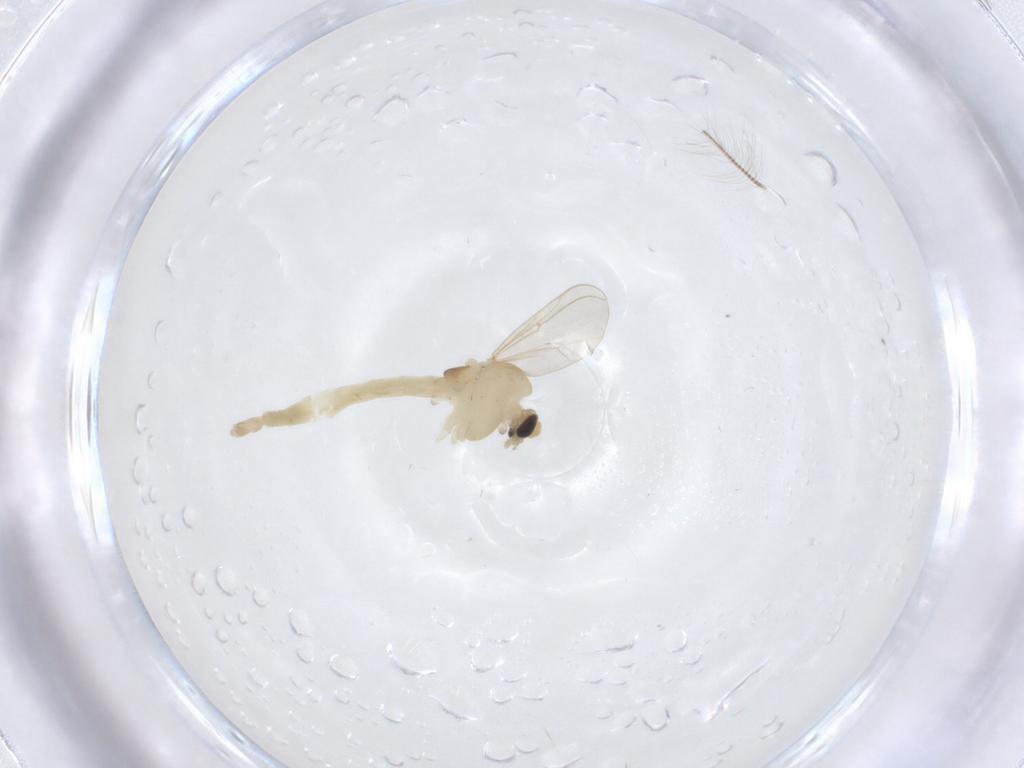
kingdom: Animalia
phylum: Arthropoda
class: Insecta
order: Diptera
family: Chironomidae
